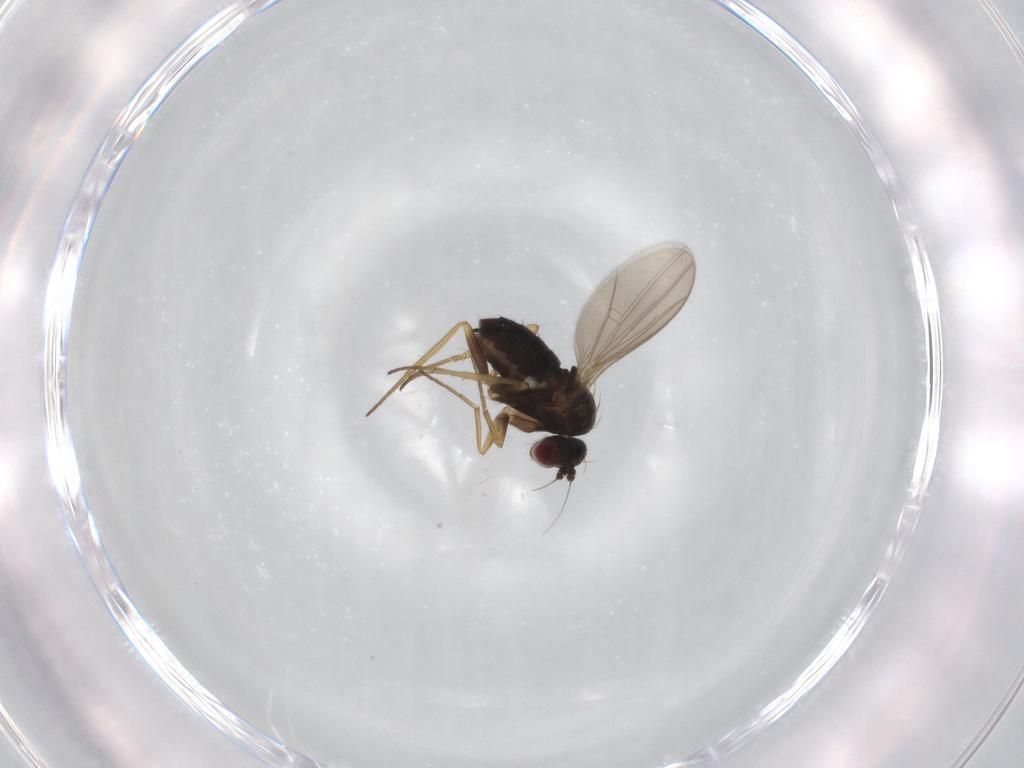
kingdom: Animalia
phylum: Arthropoda
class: Insecta
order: Diptera
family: Dolichopodidae
